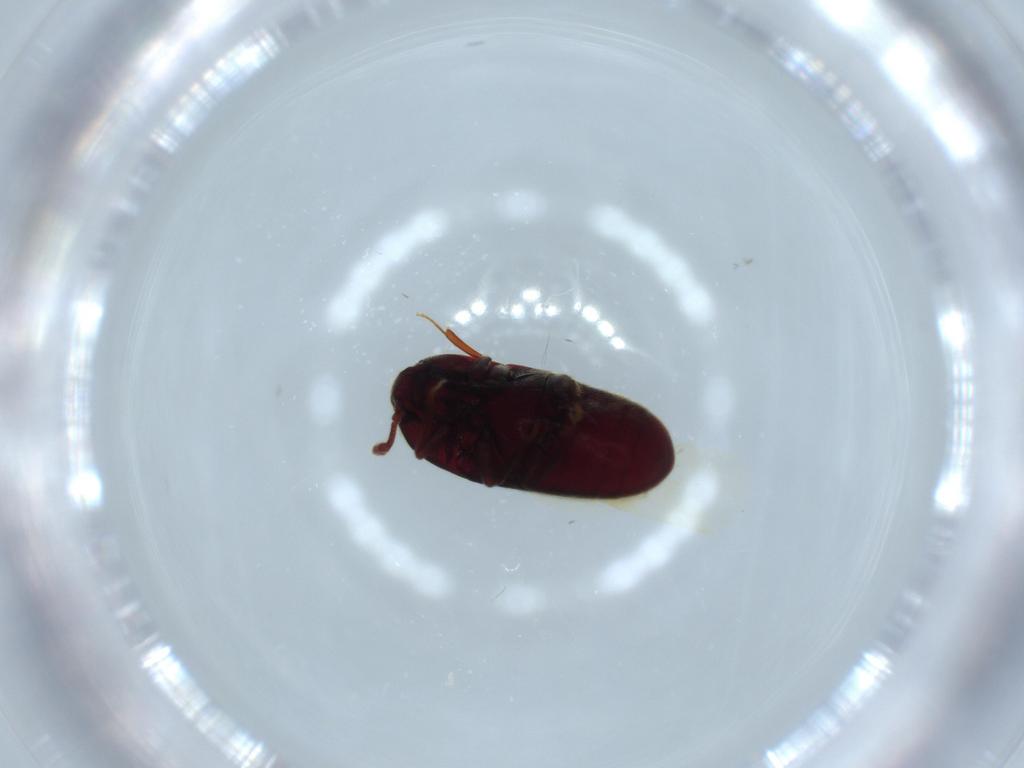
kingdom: Animalia
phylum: Arthropoda
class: Insecta
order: Coleoptera
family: Throscidae
